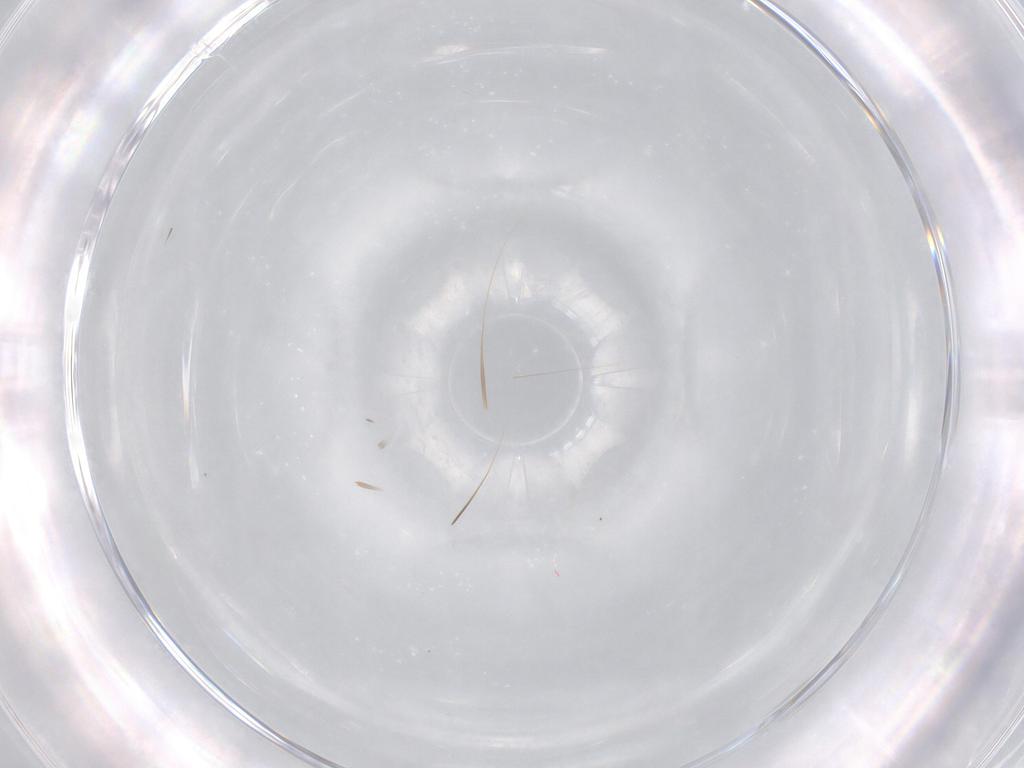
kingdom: Animalia
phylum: Arthropoda
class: Insecta
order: Diptera
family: Cecidomyiidae
